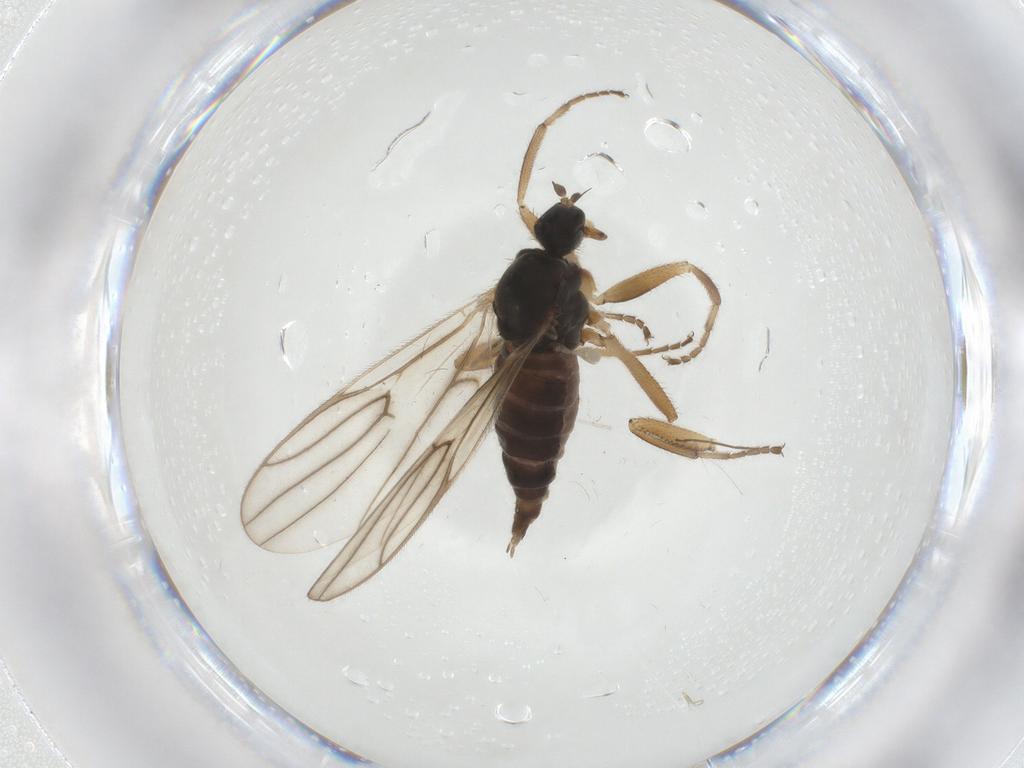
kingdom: Animalia
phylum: Arthropoda
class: Insecta
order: Diptera
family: Hybotidae
